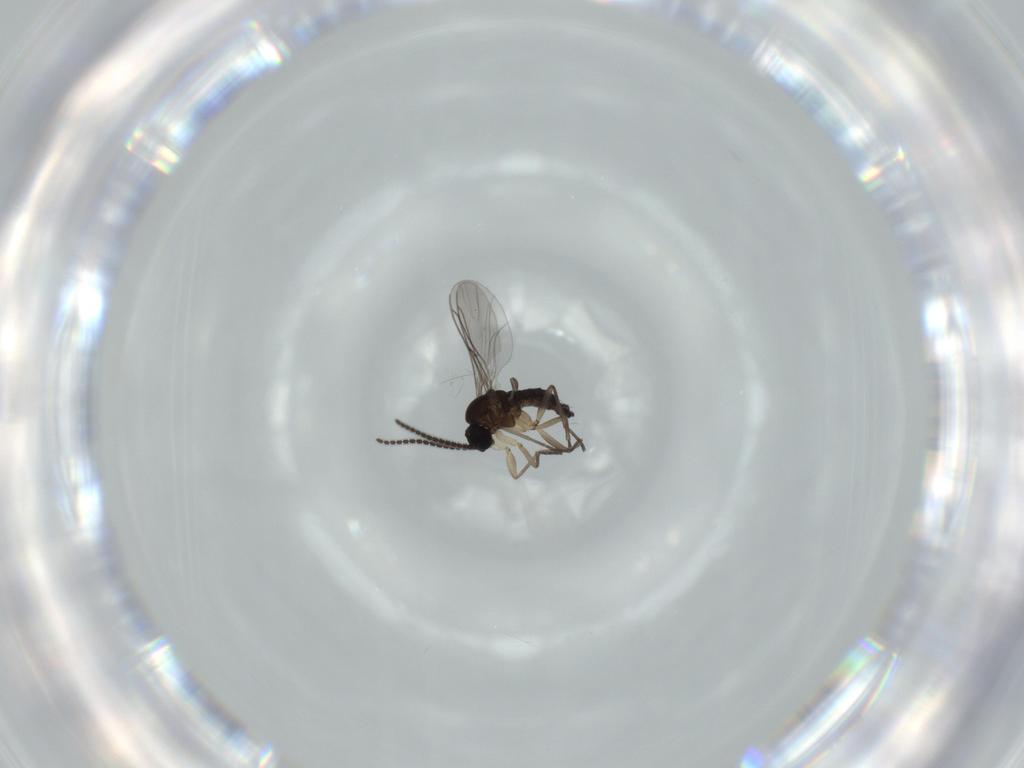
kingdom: Animalia
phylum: Arthropoda
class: Insecta
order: Diptera
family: Sciaridae
